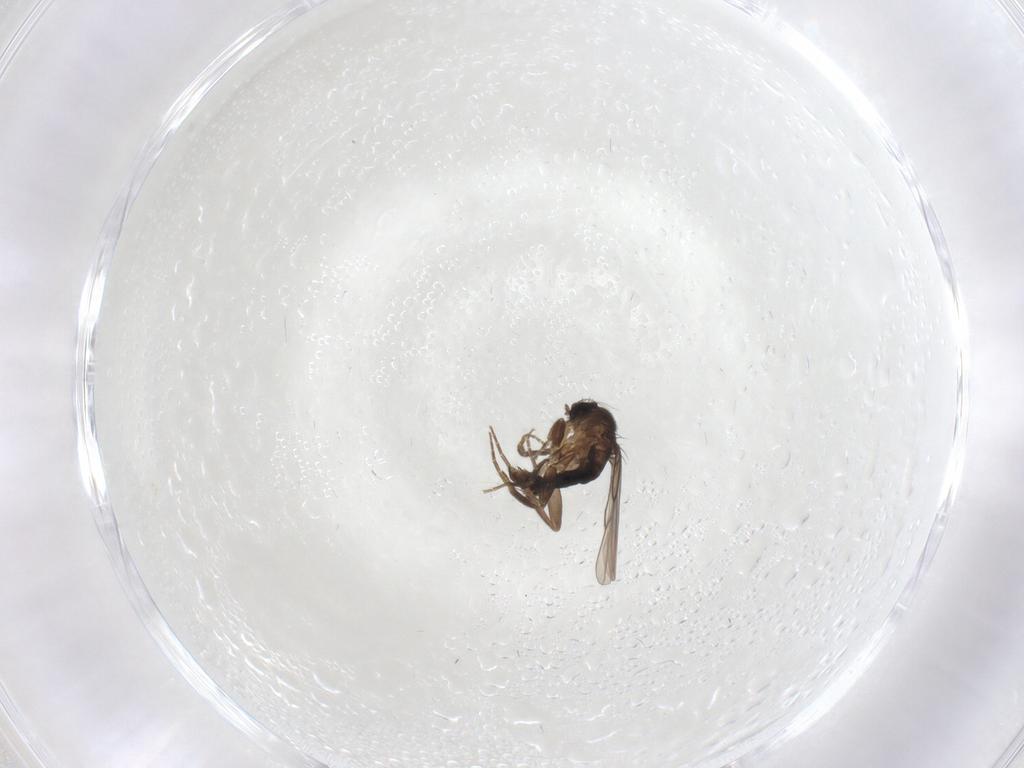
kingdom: Animalia
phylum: Arthropoda
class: Insecta
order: Diptera
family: Phoridae
